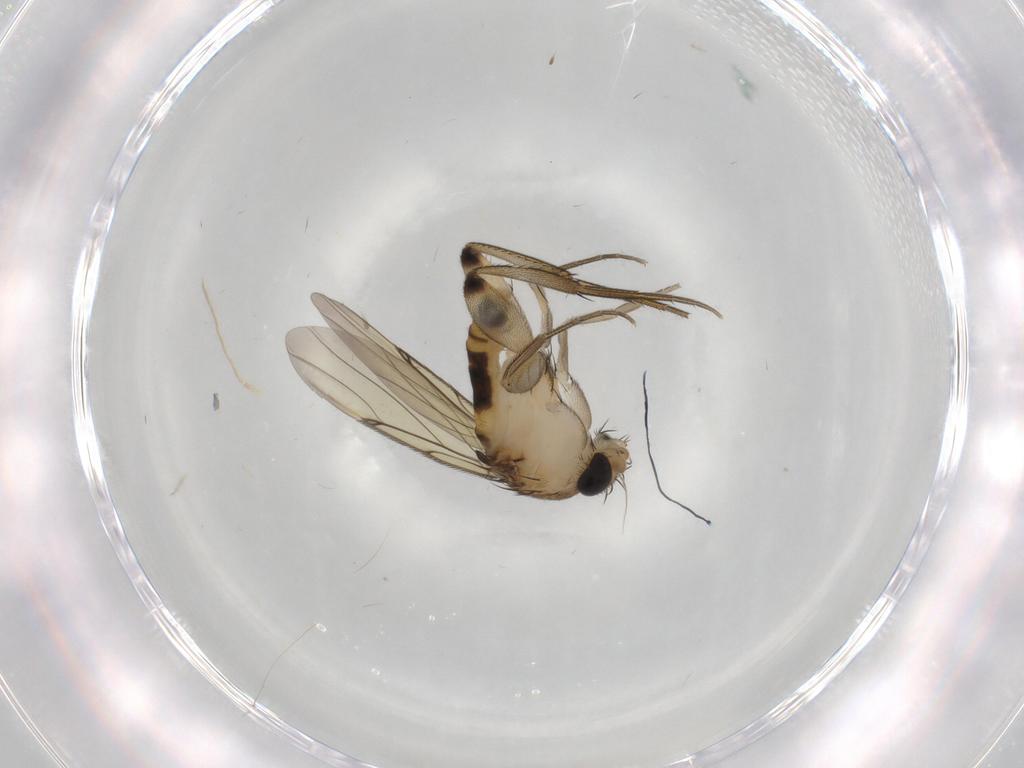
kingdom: Animalia
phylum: Arthropoda
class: Insecta
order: Diptera
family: Phoridae
